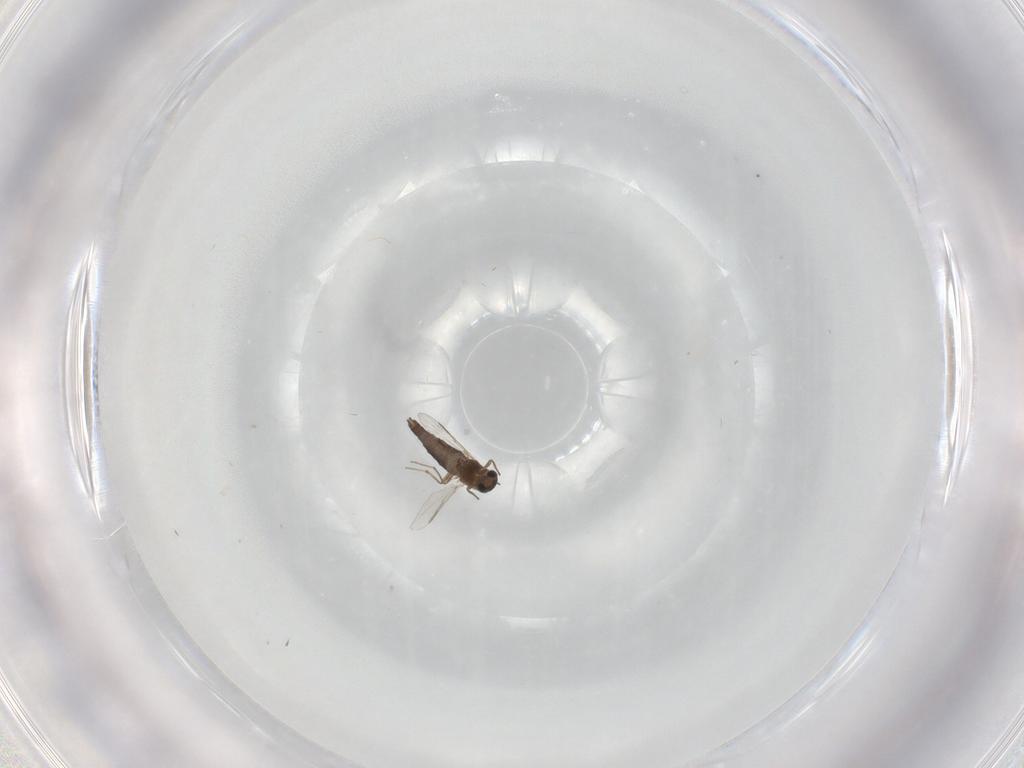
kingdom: Animalia
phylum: Arthropoda
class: Insecta
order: Diptera
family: Chironomidae
